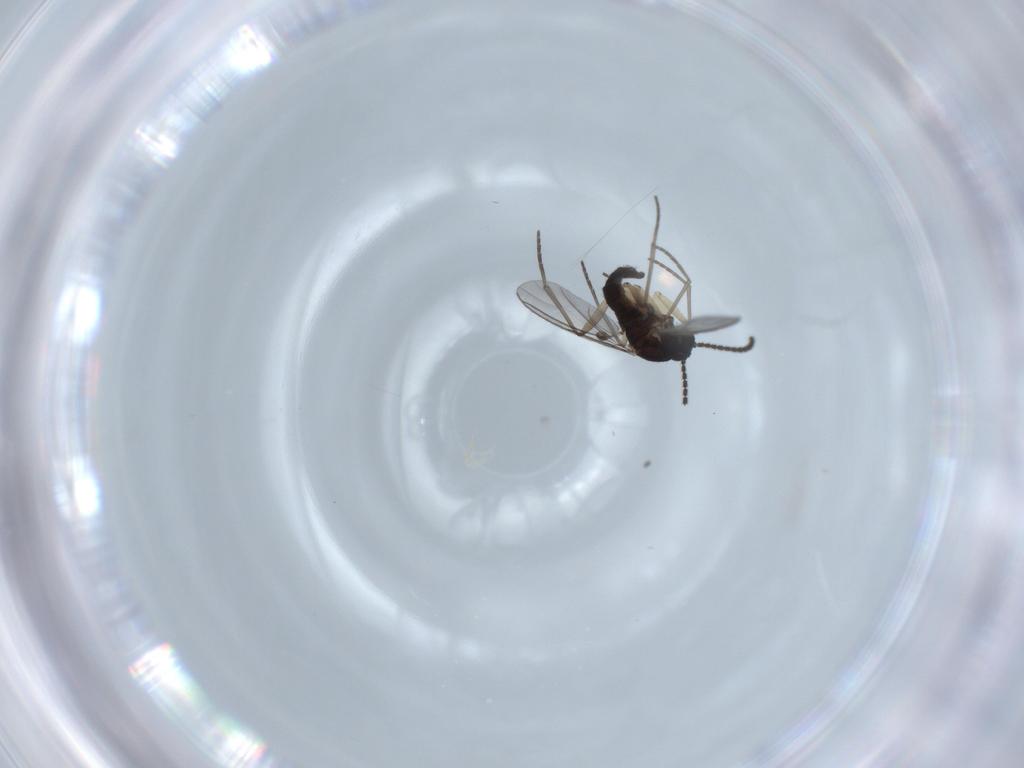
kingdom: Animalia
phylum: Arthropoda
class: Insecta
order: Diptera
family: Sciaridae
